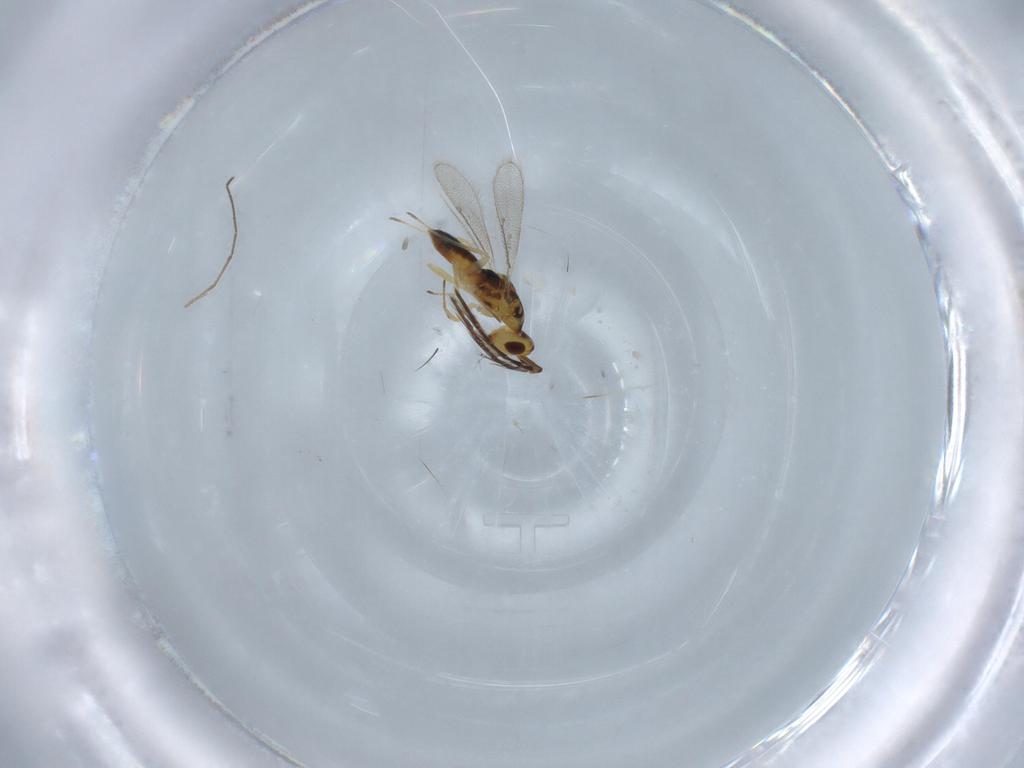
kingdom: Animalia
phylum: Arthropoda
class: Insecta
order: Hymenoptera
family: Eulophidae
